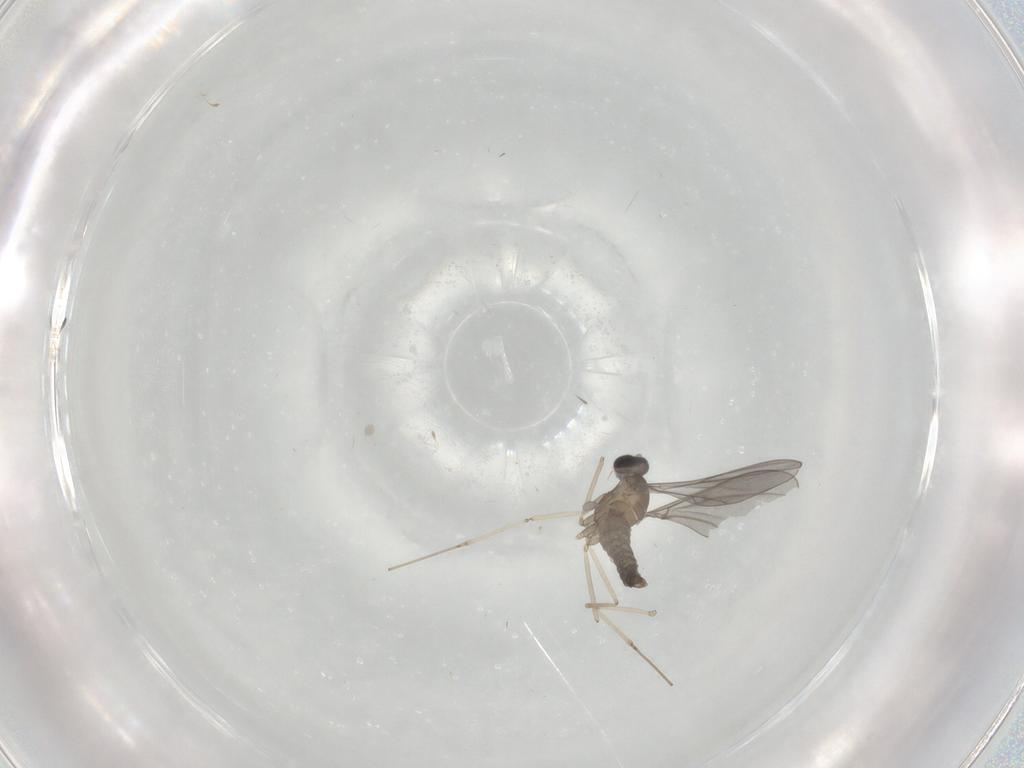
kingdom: Animalia
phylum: Arthropoda
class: Insecta
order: Diptera
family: Cecidomyiidae
